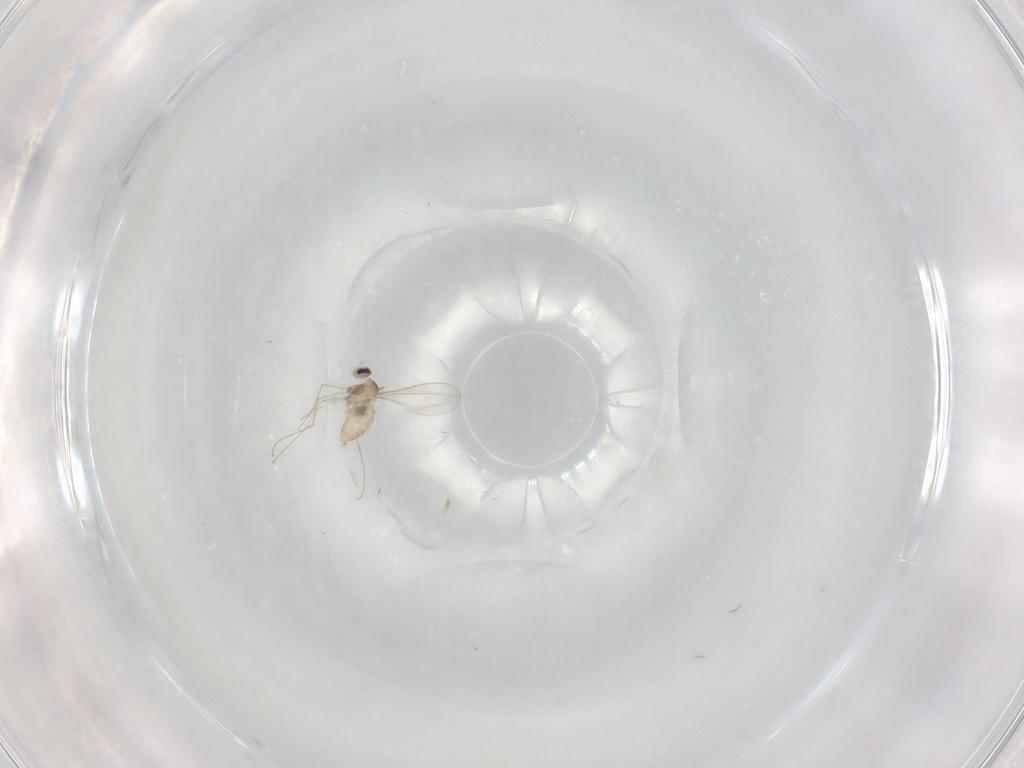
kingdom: Animalia
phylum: Arthropoda
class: Insecta
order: Diptera
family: Cecidomyiidae
